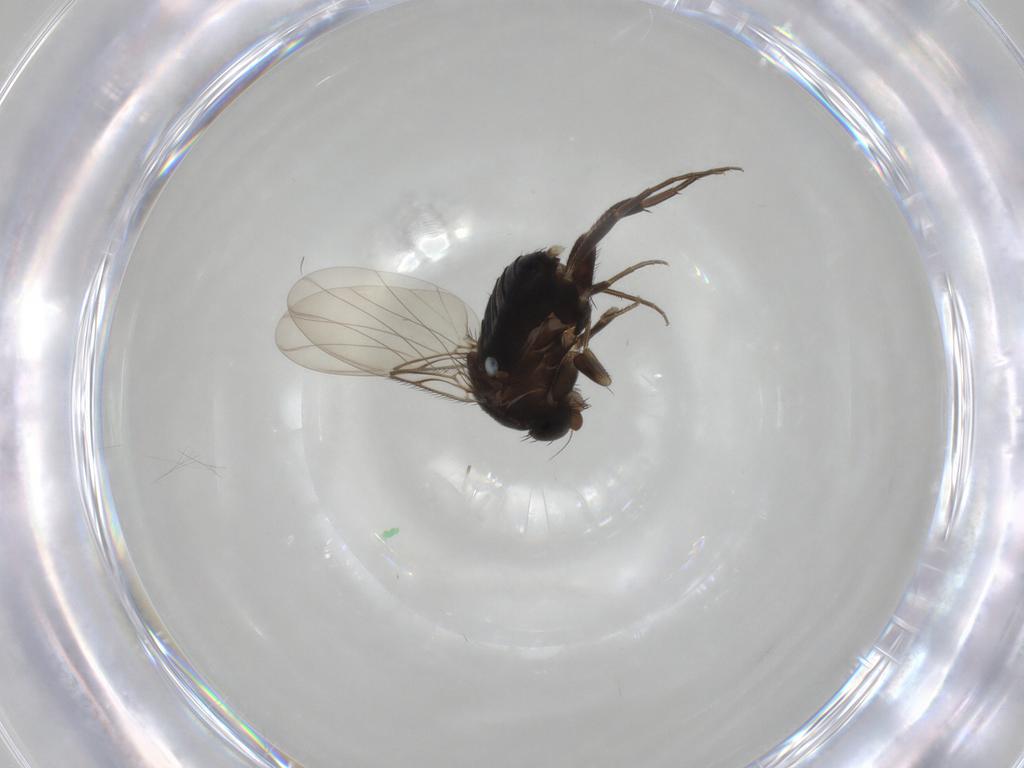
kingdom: Animalia
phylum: Arthropoda
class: Insecta
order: Diptera
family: Phoridae
